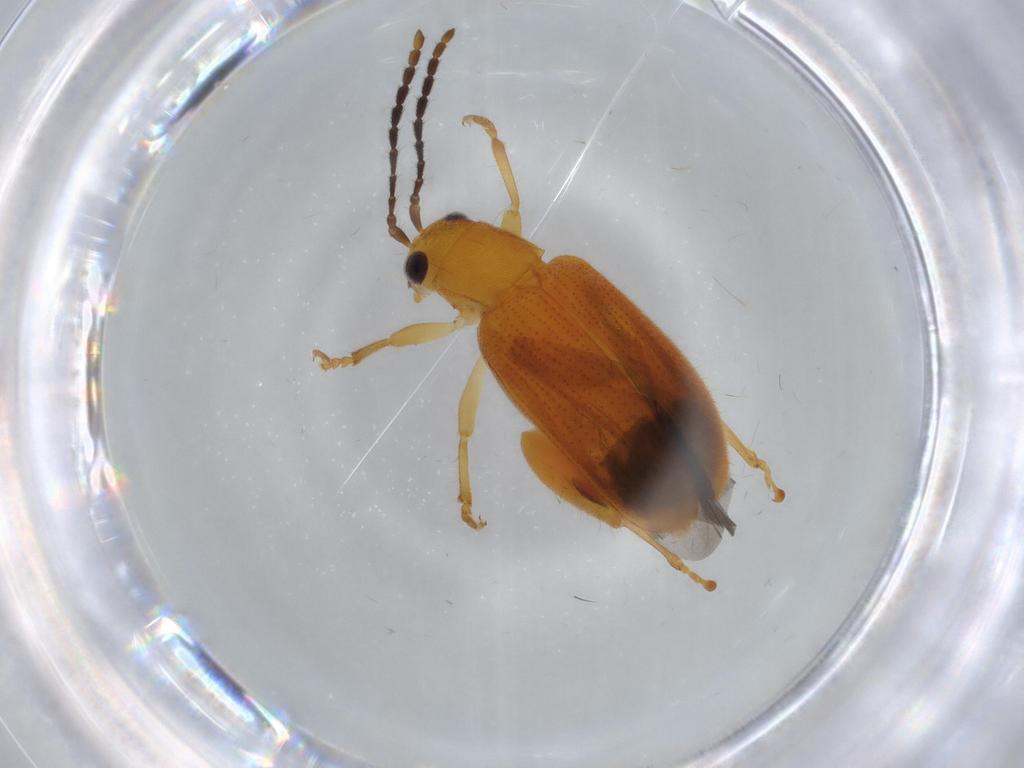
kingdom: Animalia
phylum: Arthropoda
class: Insecta
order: Coleoptera
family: Chrysomelidae
